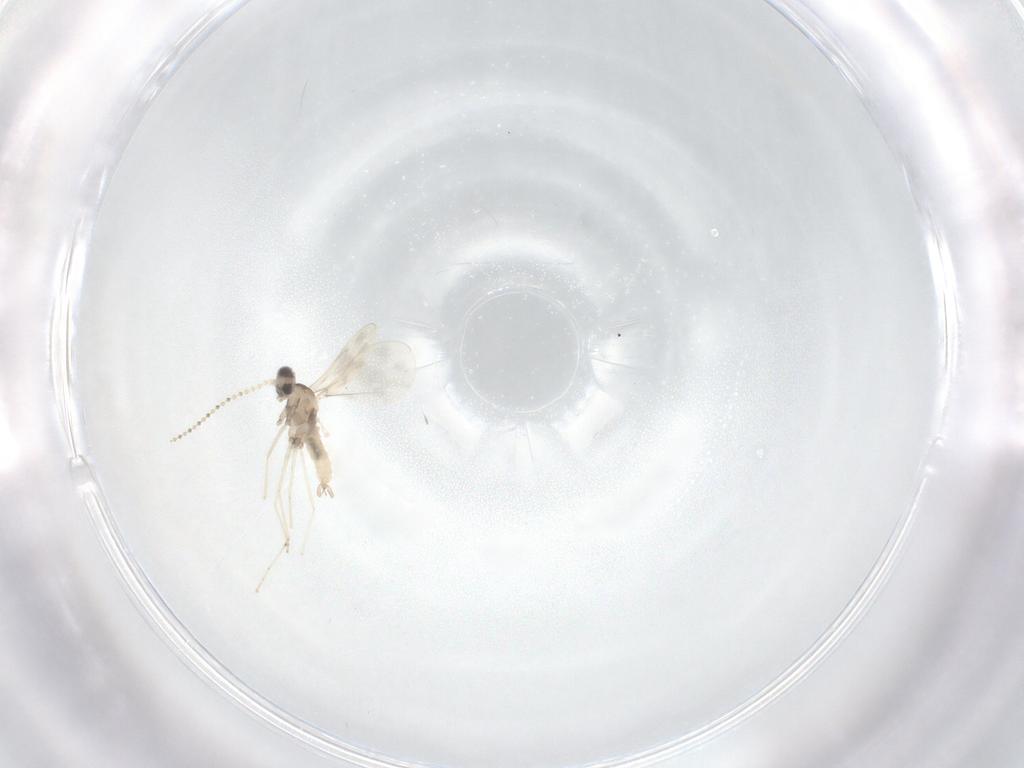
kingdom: Animalia
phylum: Arthropoda
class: Insecta
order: Diptera
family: Cecidomyiidae
